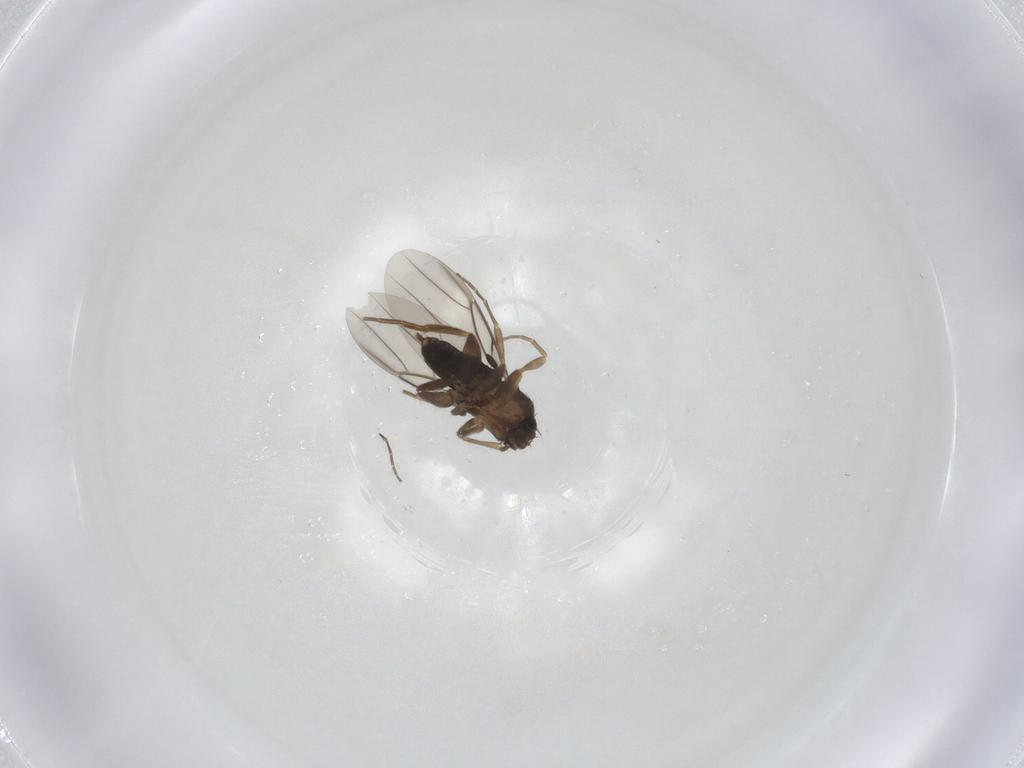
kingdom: Animalia
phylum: Arthropoda
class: Insecta
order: Diptera
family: Phoridae
